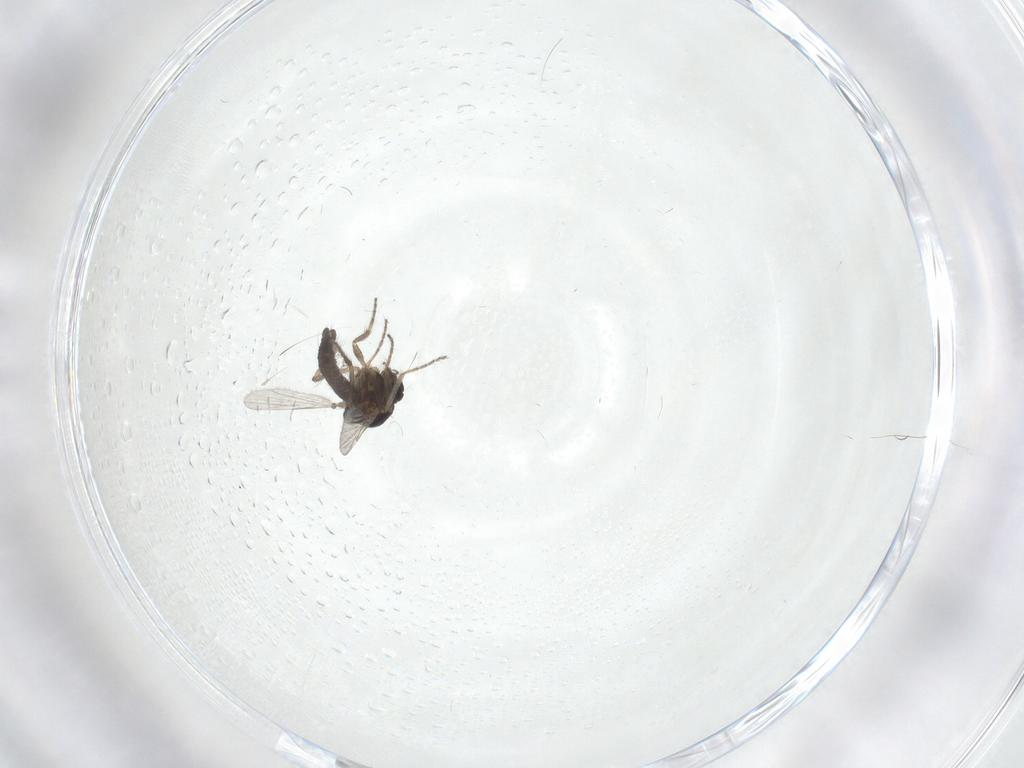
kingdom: Animalia
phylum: Arthropoda
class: Insecta
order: Diptera
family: Ceratopogonidae
